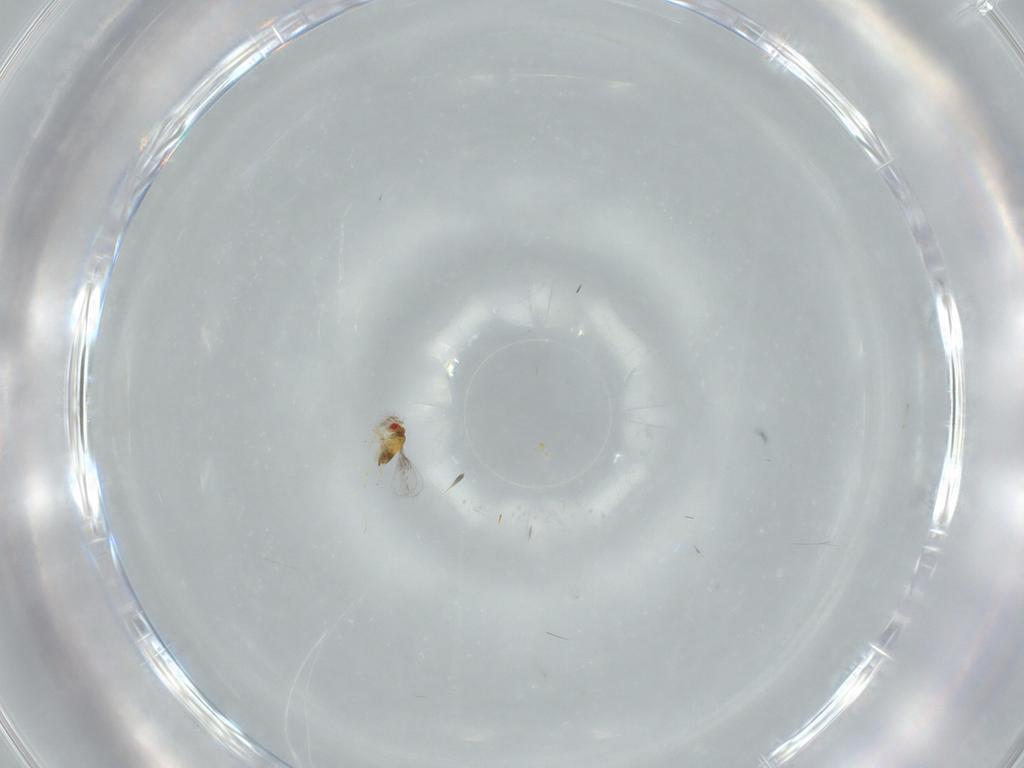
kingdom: Animalia
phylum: Arthropoda
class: Insecta
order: Hymenoptera
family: Trichogrammatidae
